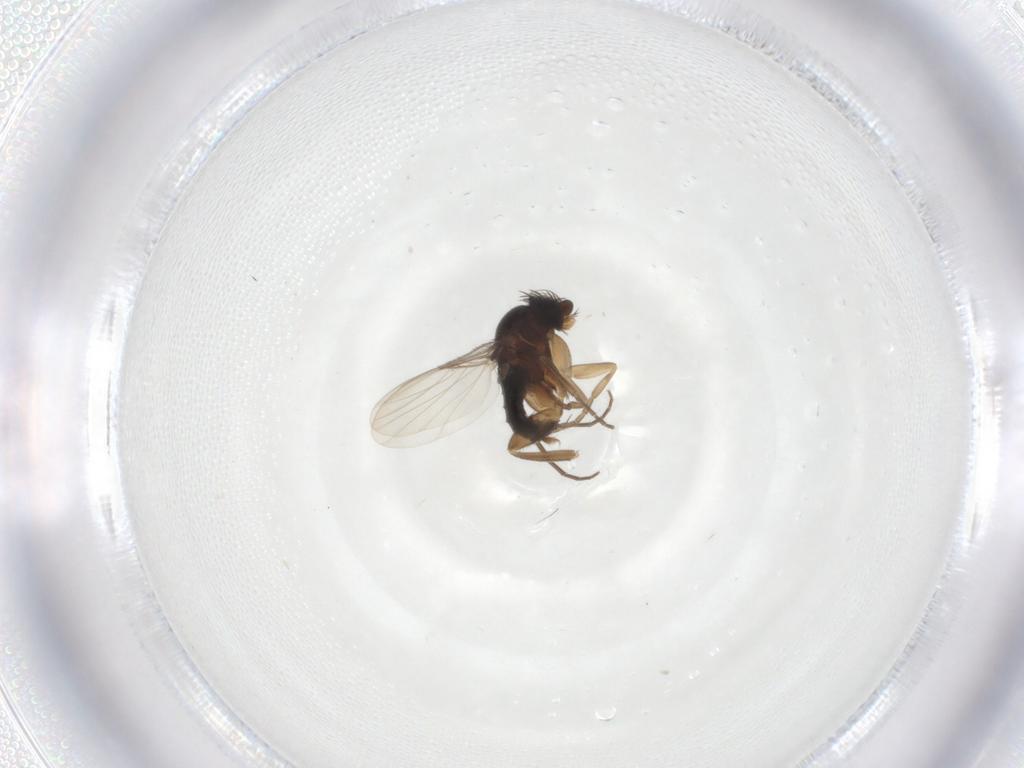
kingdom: Animalia
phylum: Arthropoda
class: Insecta
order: Diptera
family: Phoridae
